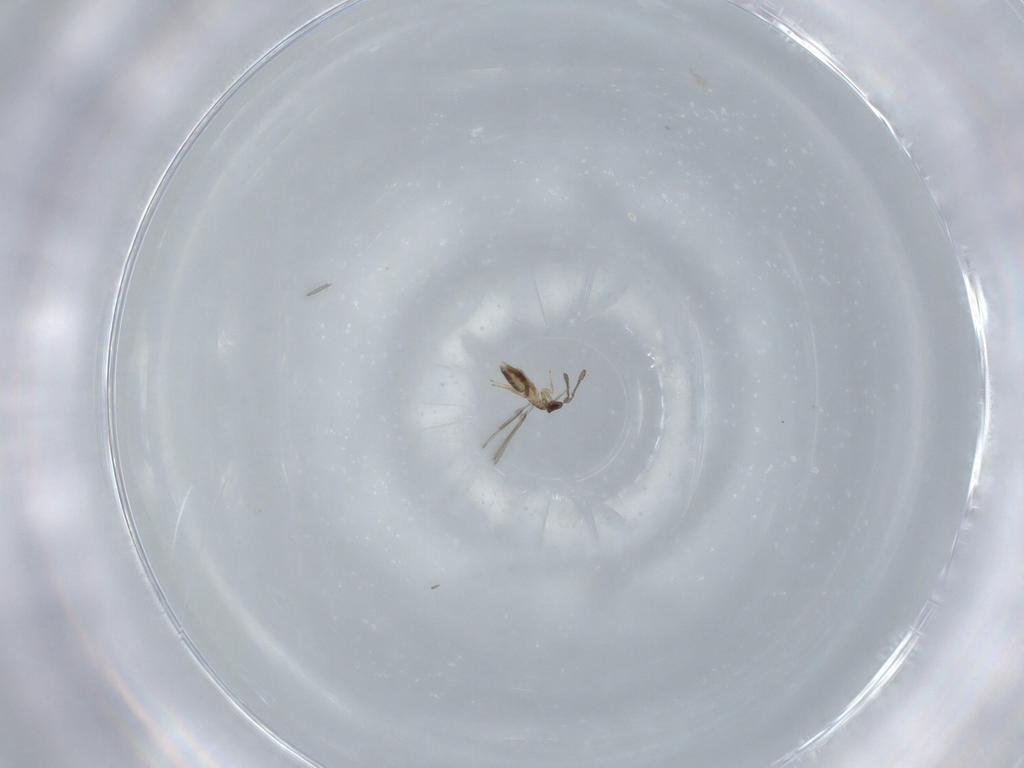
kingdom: Animalia
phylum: Arthropoda
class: Insecta
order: Hymenoptera
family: Mymaridae
